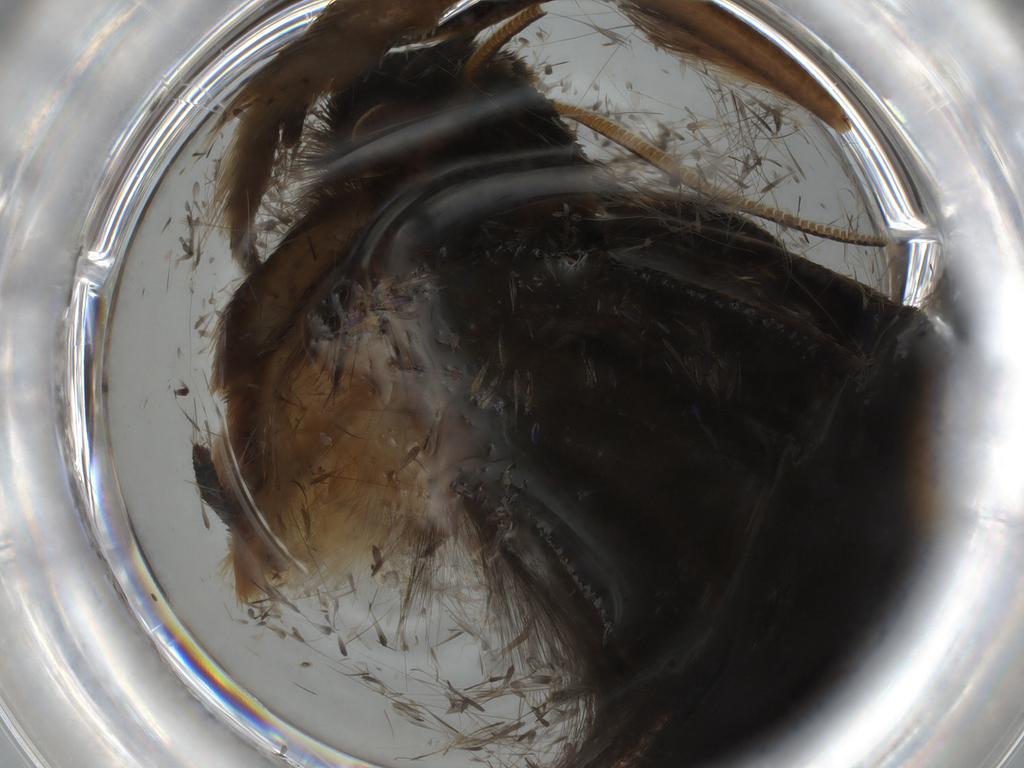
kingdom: Animalia
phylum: Arthropoda
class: Insecta
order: Lepidoptera
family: Tineidae
